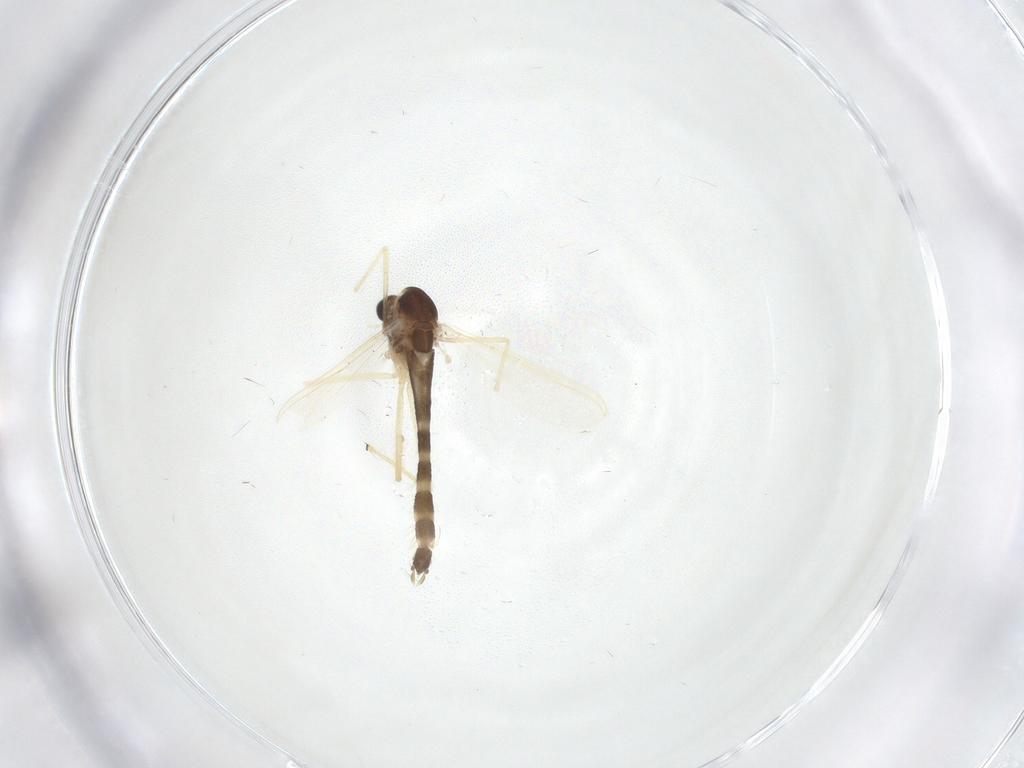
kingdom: Animalia
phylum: Arthropoda
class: Insecta
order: Diptera
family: Chironomidae
